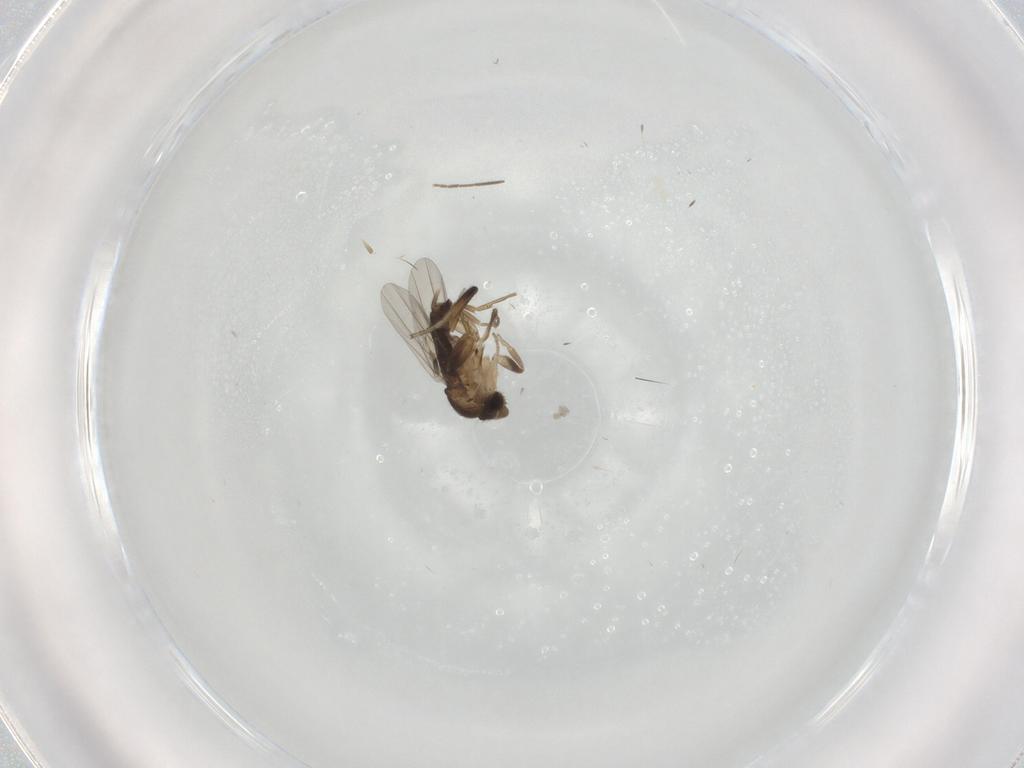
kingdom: Animalia
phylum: Arthropoda
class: Insecta
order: Diptera
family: Phoridae
